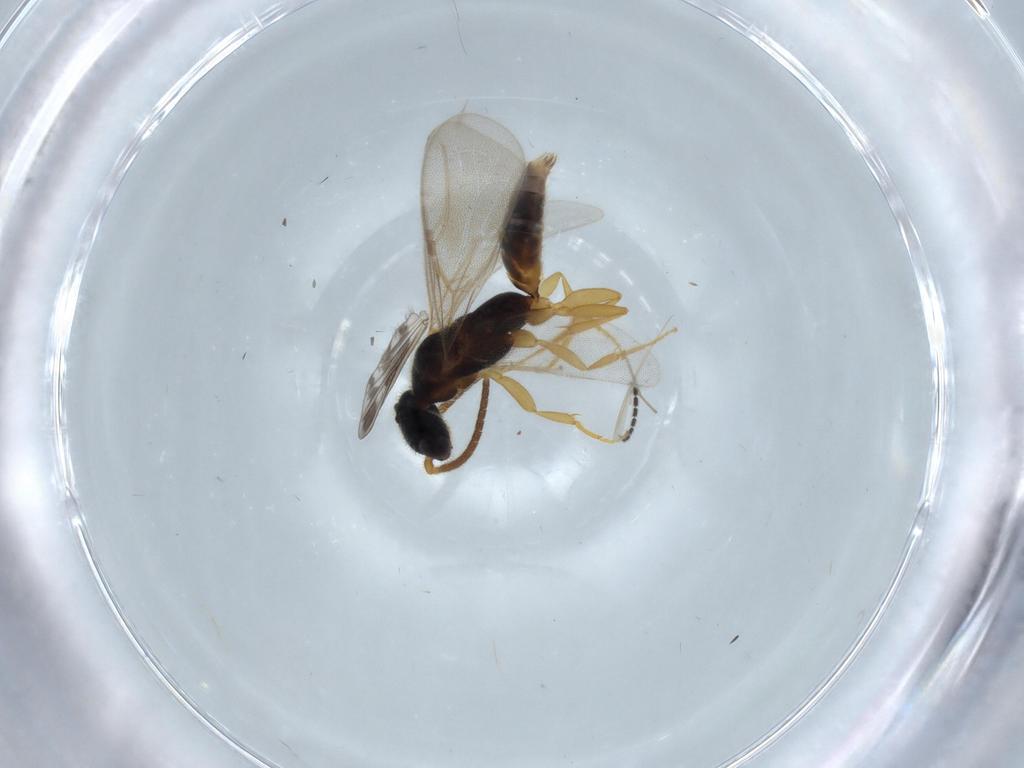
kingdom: Animalia
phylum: Arthropoda
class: Insecta
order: Hymenoptera
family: Bethylidae
